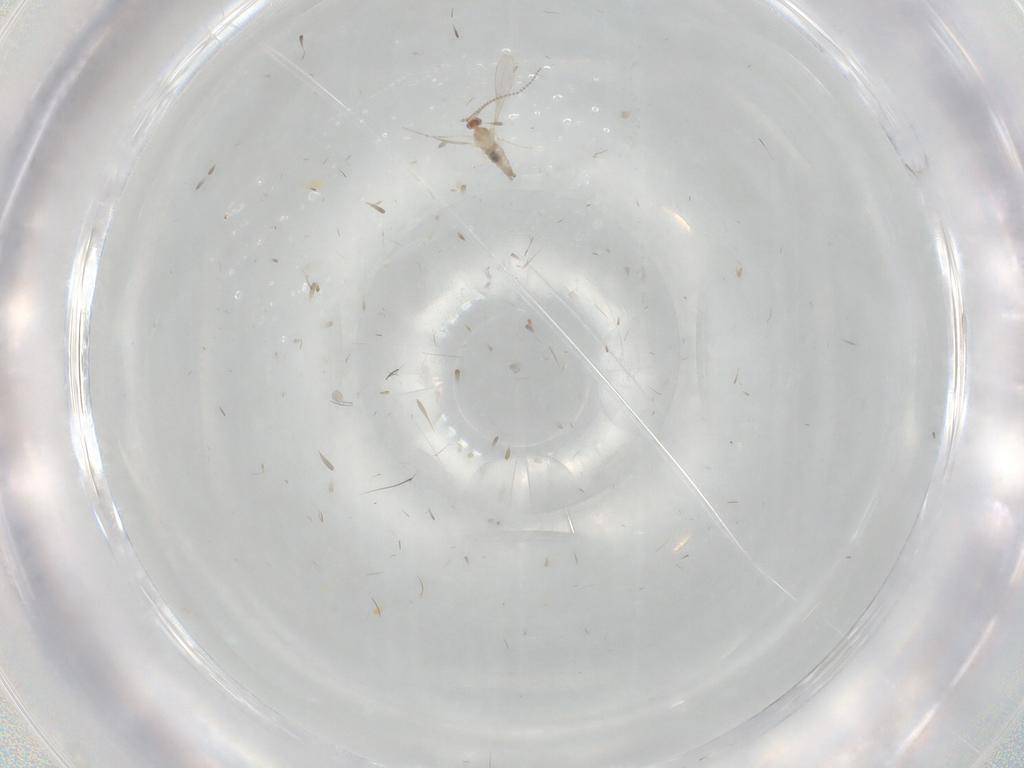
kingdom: Animalia
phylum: Arthropoda
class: Insecta
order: Diptera
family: Cecidomyiidae
